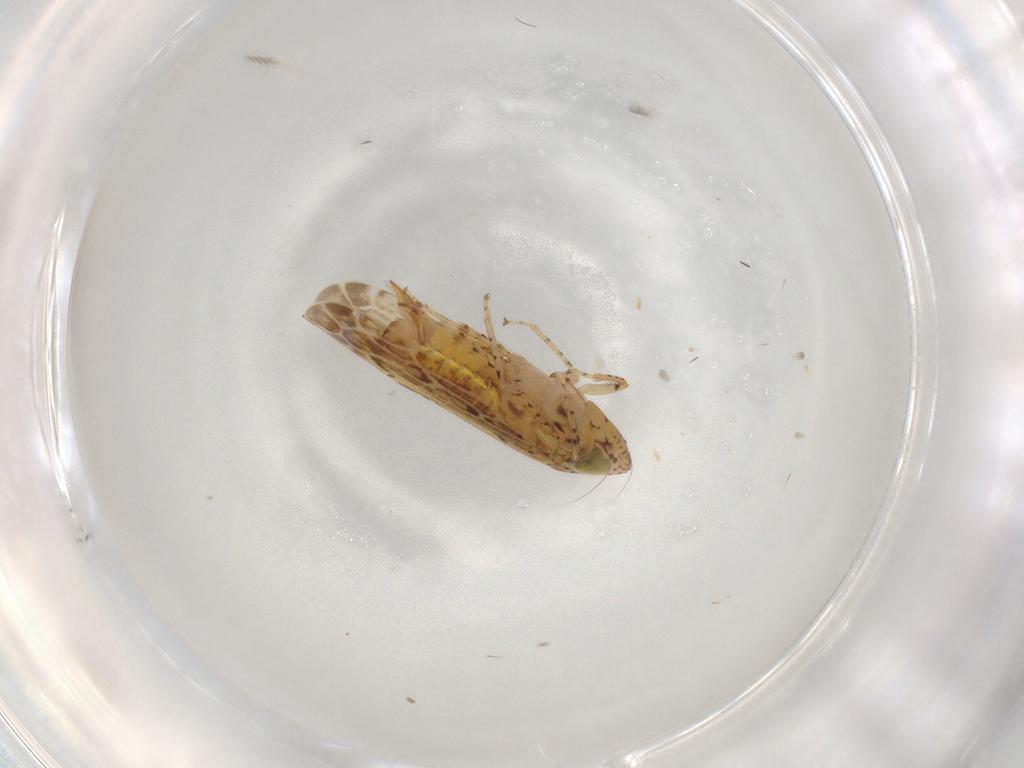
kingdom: Animalia
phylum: Arthropoda
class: Insecta
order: Hemiptera
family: Cicadellidae
